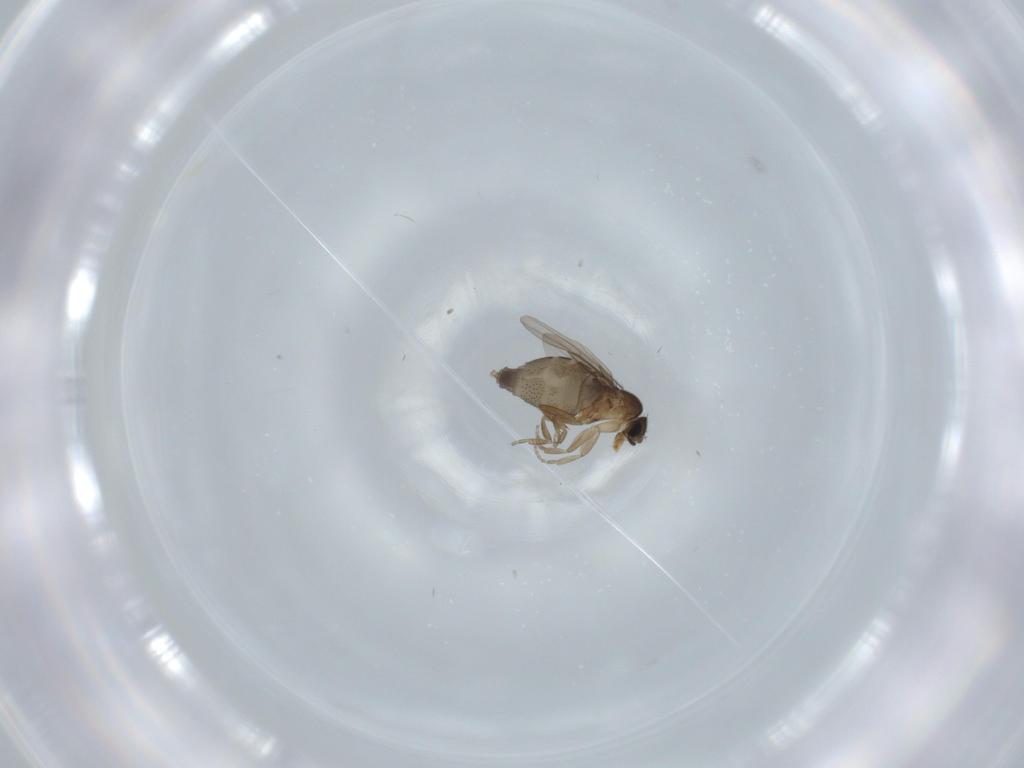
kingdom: Animalia
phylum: Arthropoda
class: Insecta
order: Diptera
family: Phoridae
